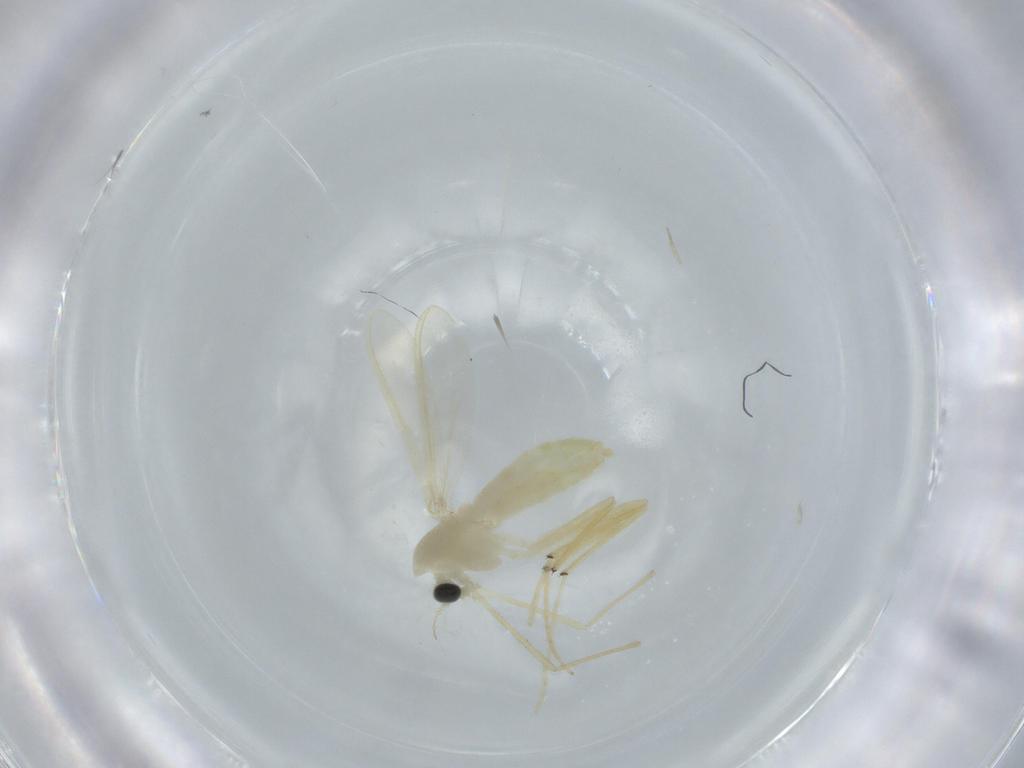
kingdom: Animalia
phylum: Arthropoda
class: Insecta
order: Diptera
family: Chironomidae
